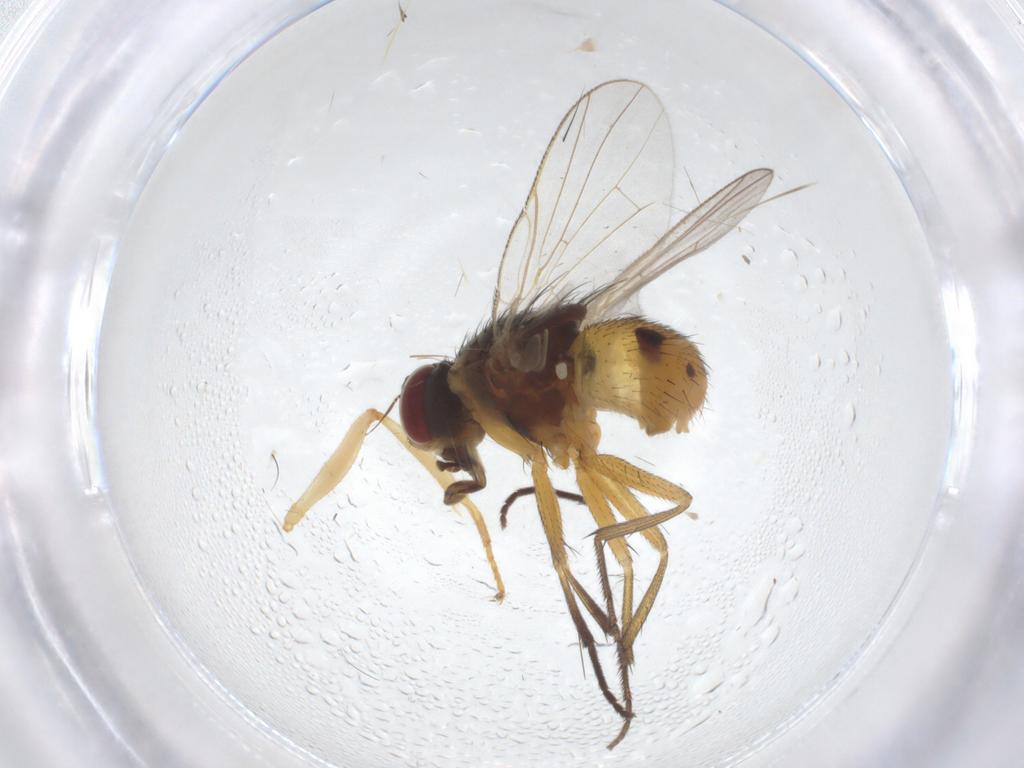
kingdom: Animalia
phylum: Arthropoda
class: Insecta
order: Diptera
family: Muscidae
